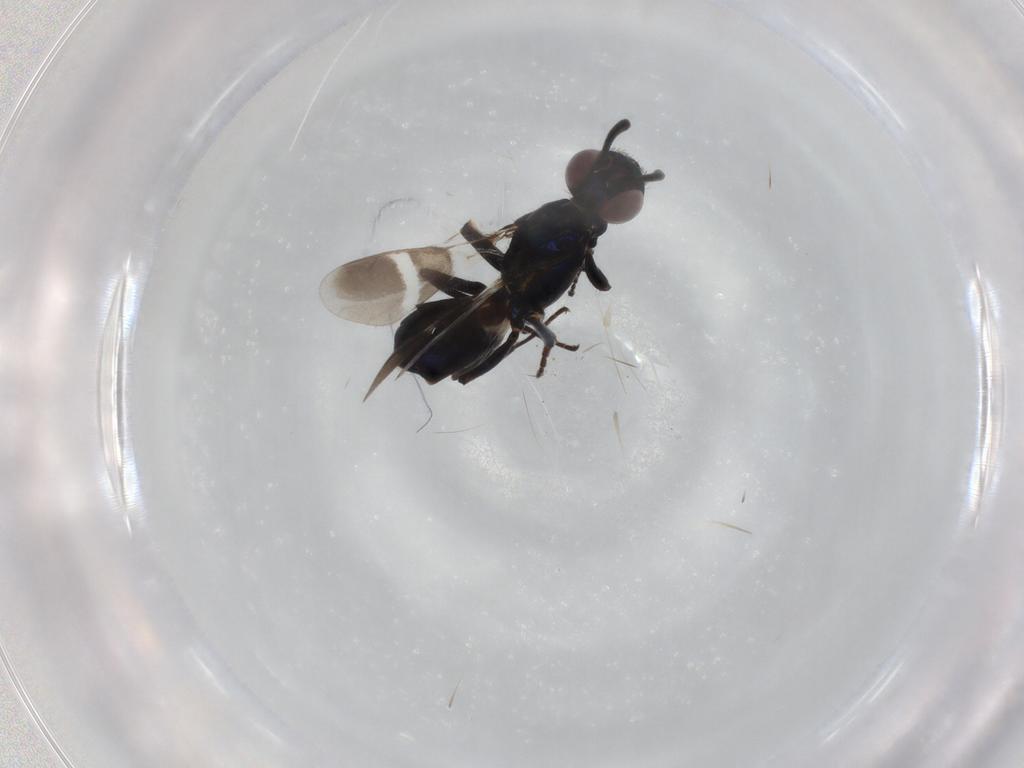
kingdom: Animalia
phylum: Arthropoda
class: Insecta
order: Hymenoptera
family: Eupelmidae
